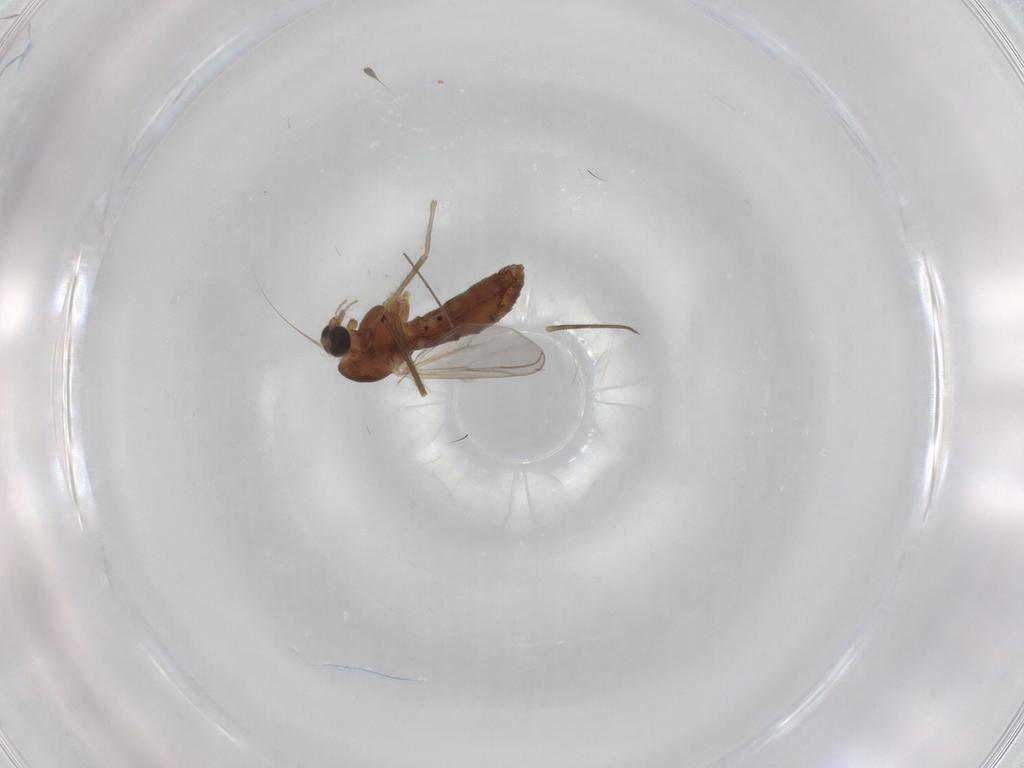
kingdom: Animalia
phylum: Arthropoda
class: Insecta
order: Diptera
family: Chironomidae
